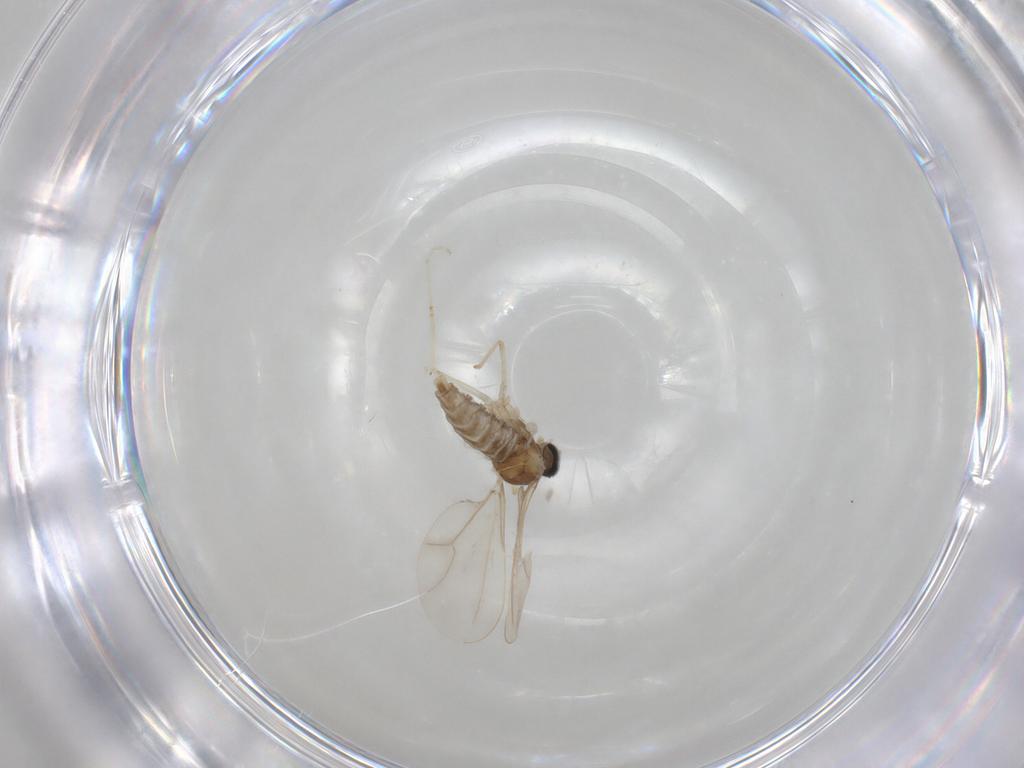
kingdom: Animalia
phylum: Arthropoda
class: Insecta
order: Diptera
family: Cecidomyiidae
